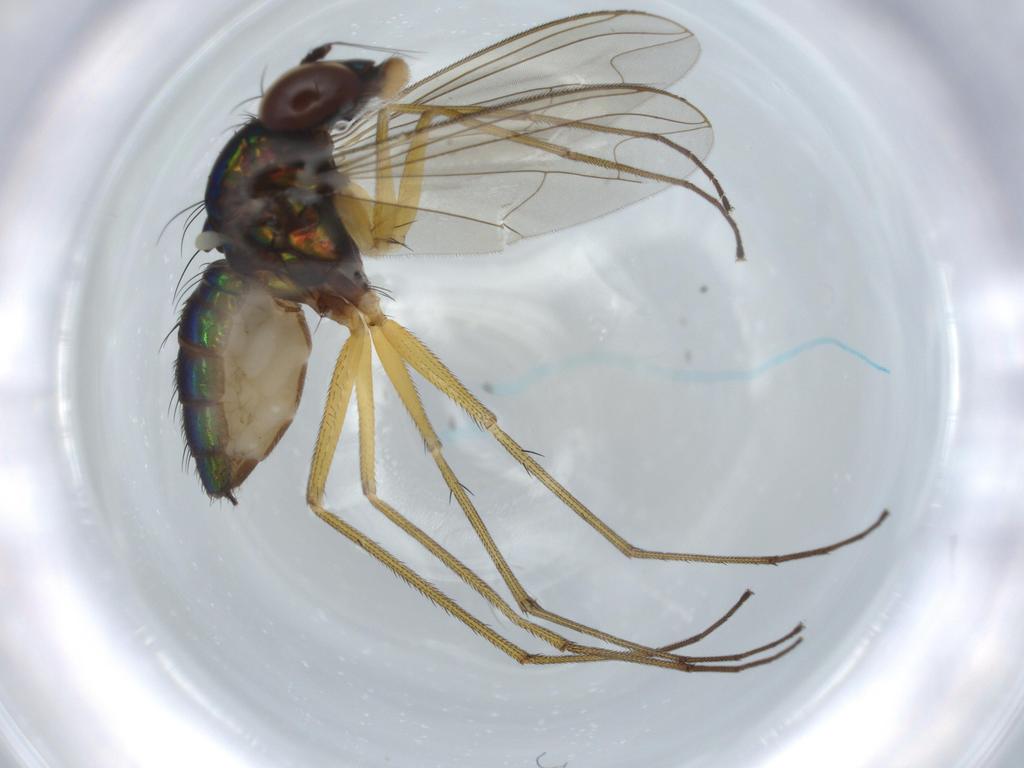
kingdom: Animalia
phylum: Arthropoda
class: Insecta
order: Diptera
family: Dolichopodidae
